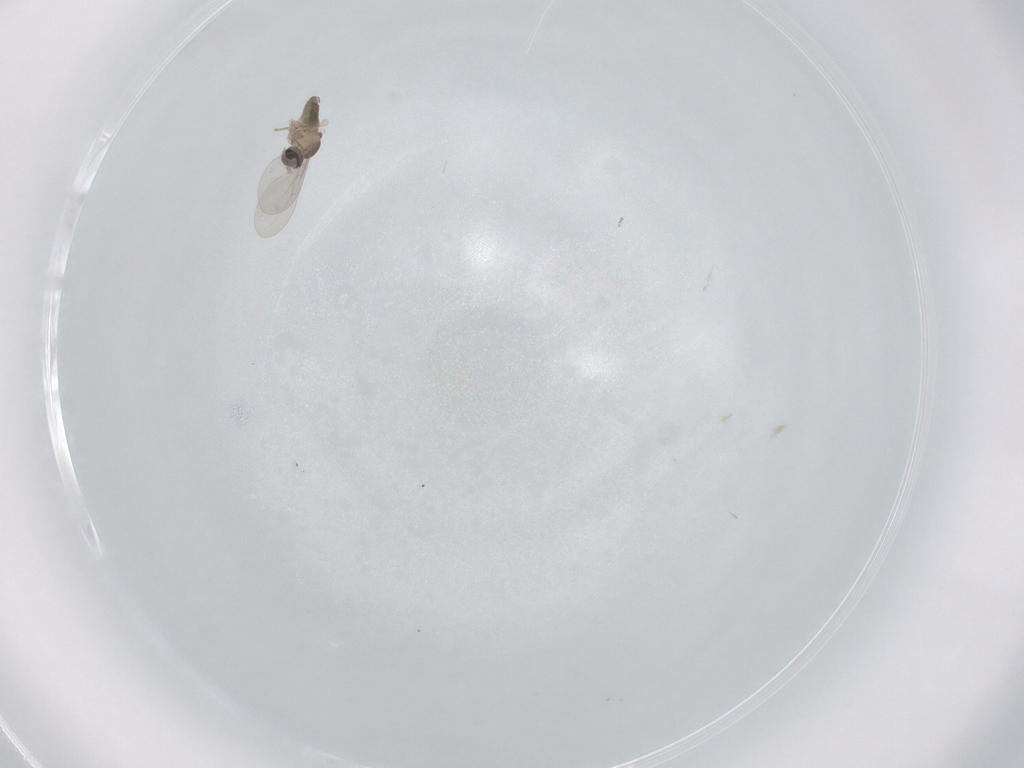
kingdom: Animalia
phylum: Arthropoda
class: Insecta
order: Diptera
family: Cecidomyiidae
